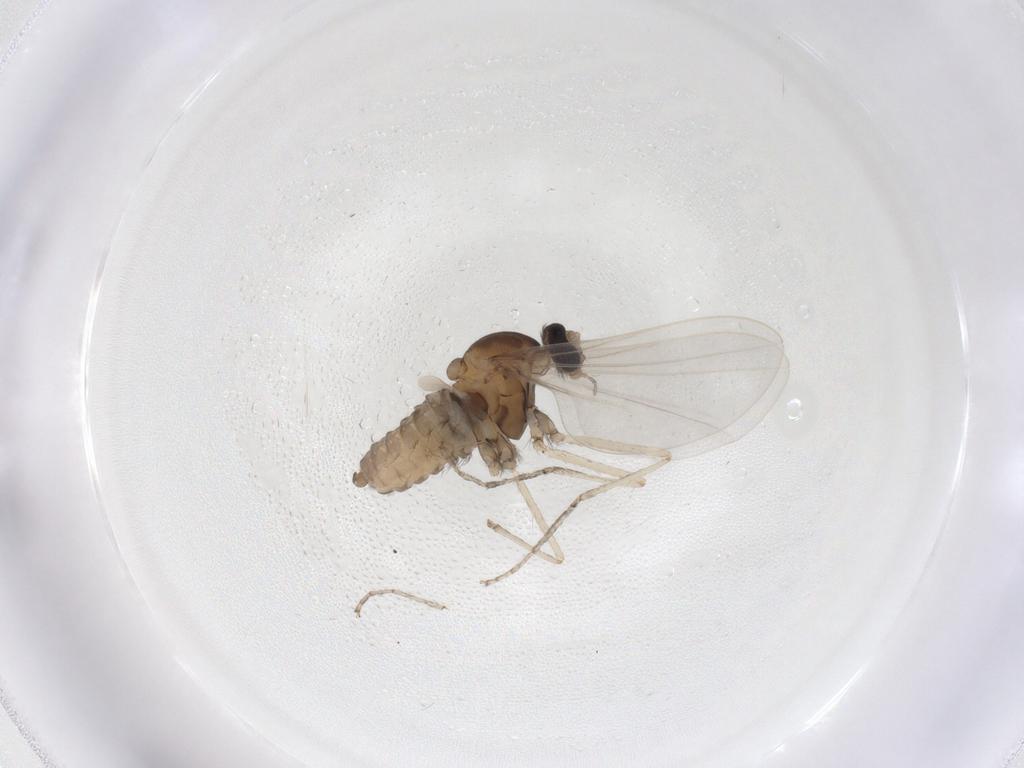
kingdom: Animalia
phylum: Arthropoda
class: Insecta
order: Diptera
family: Cecidomyiidae
